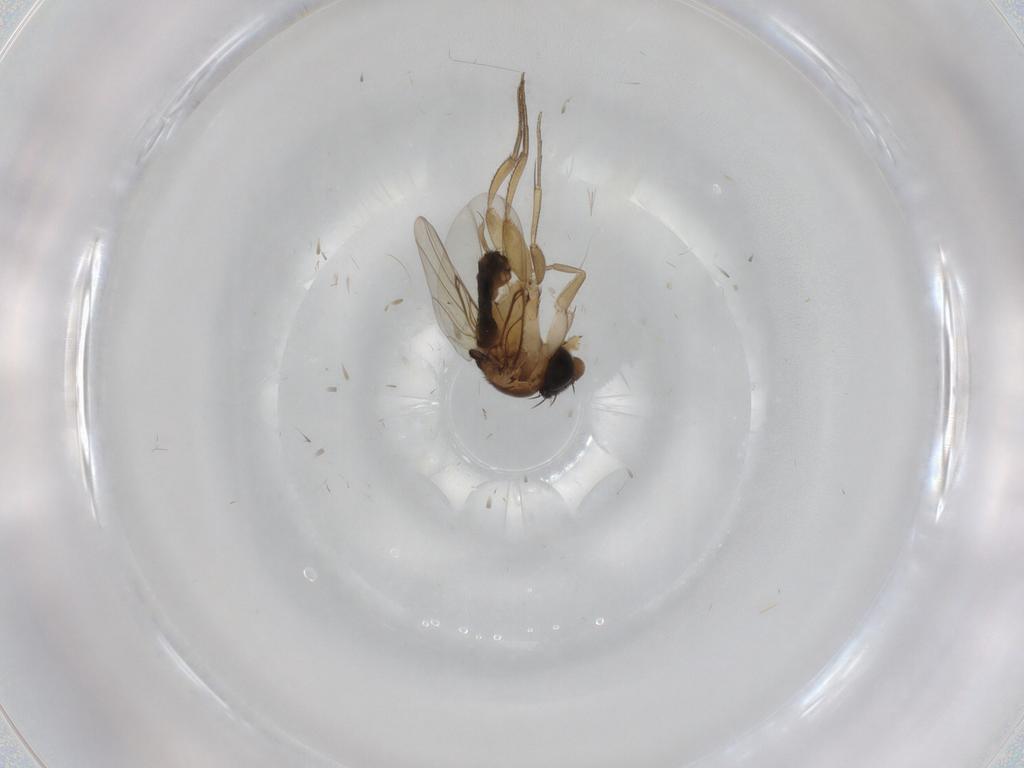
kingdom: Animalia
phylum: Arthropoda
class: Insecta
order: Diptera
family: Phoridae
